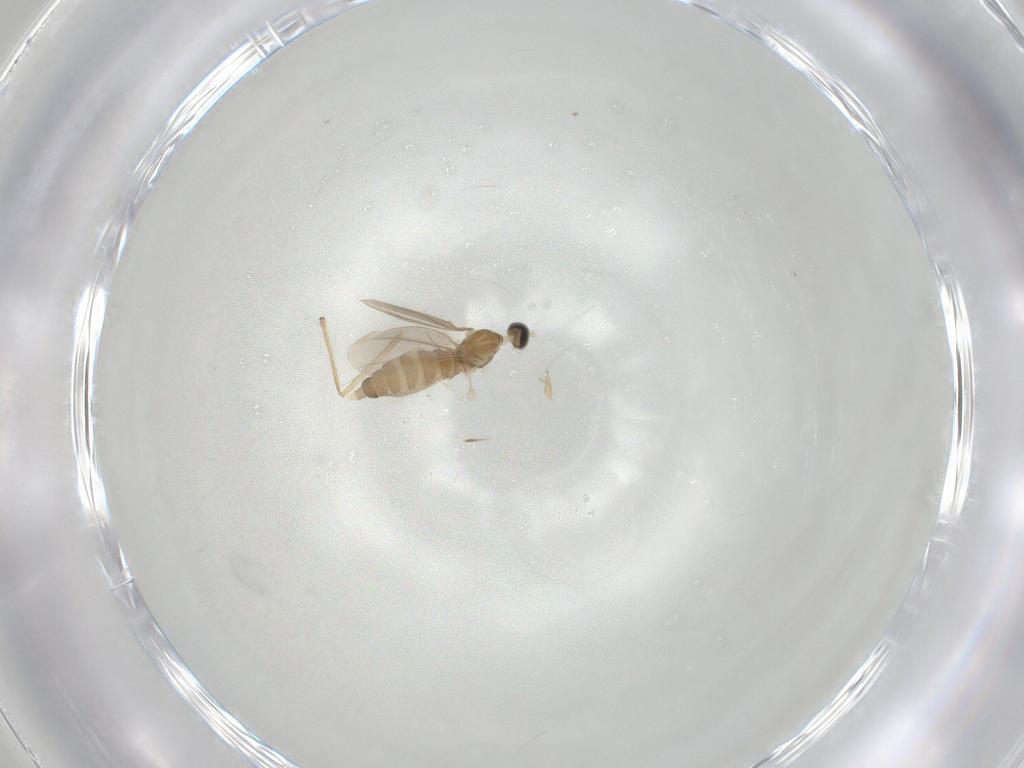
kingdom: Animalia
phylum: Arthropoda
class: Insecta
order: Diptera
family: Cecidomyiidae
